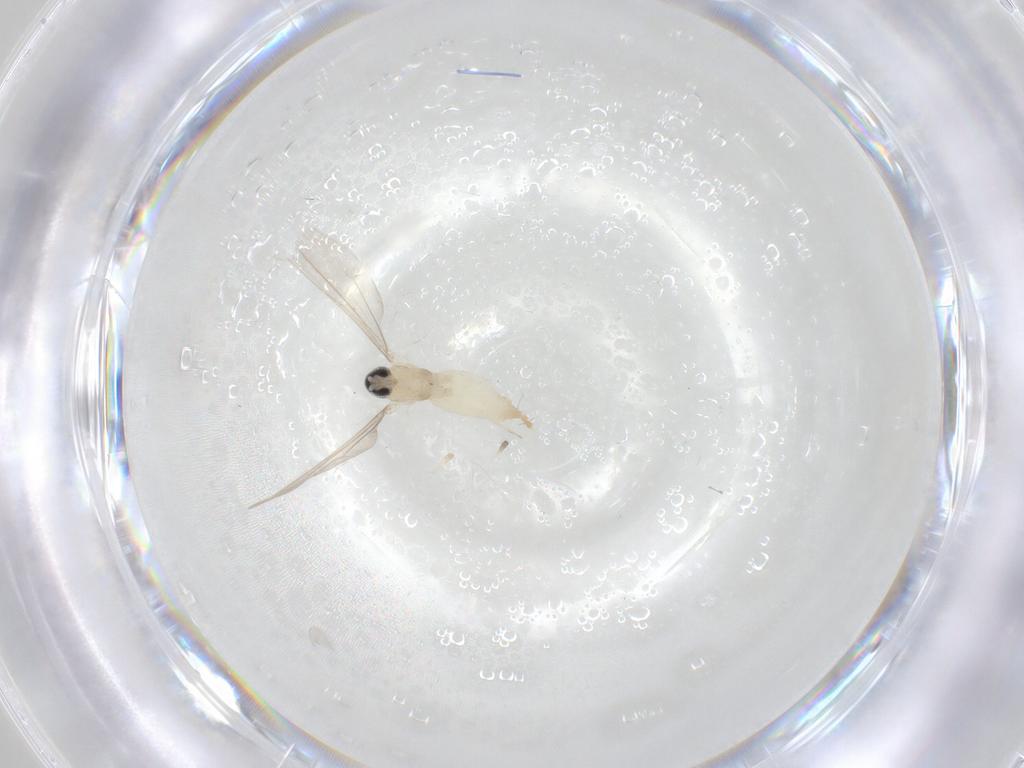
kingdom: Animalia
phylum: Arthropoda
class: Insecta
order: Diptera
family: Cecidomyiidae
